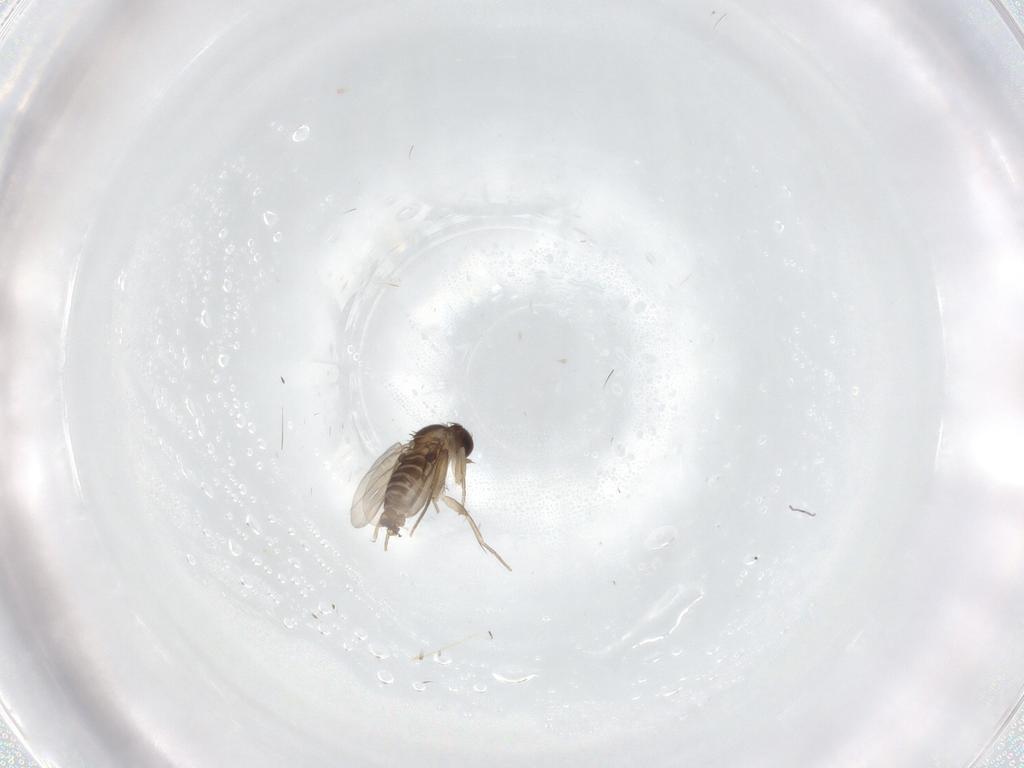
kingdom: Animalia
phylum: Arthropoda
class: Insecta
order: Diptera
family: Phoridae
